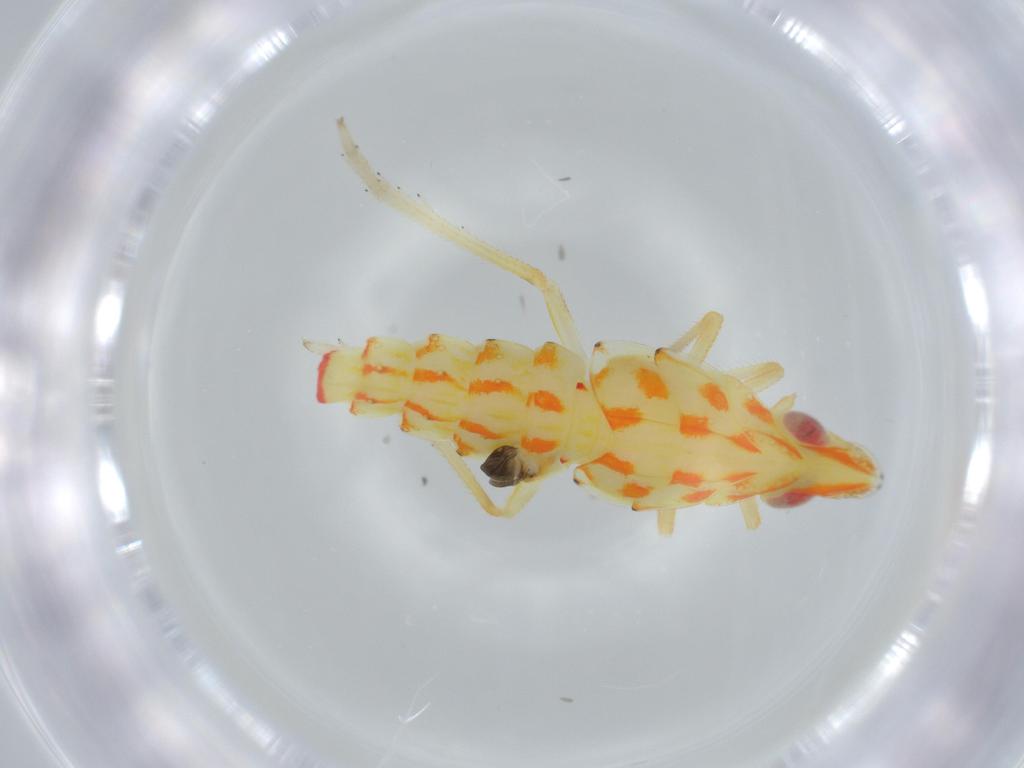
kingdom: Animalia
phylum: Arthropoda
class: Insecta
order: Hemiptera
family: Tropiduchidae
